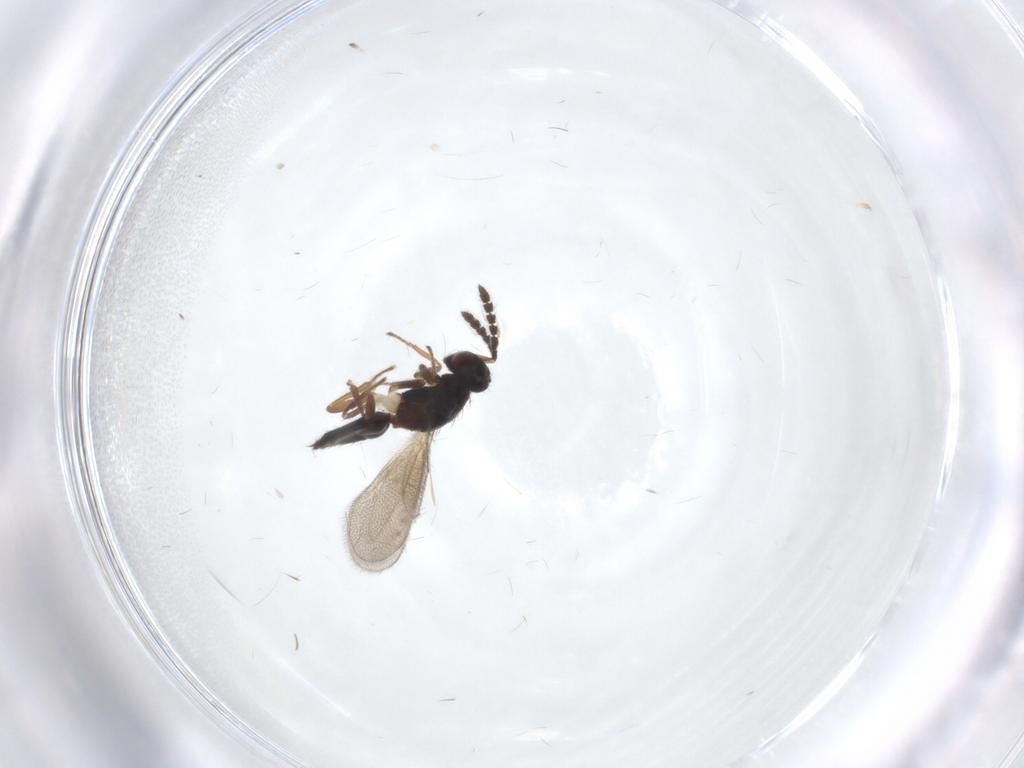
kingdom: Animalia
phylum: Arthropoda
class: Insecta
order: Hymenoptera
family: Eulophidae
